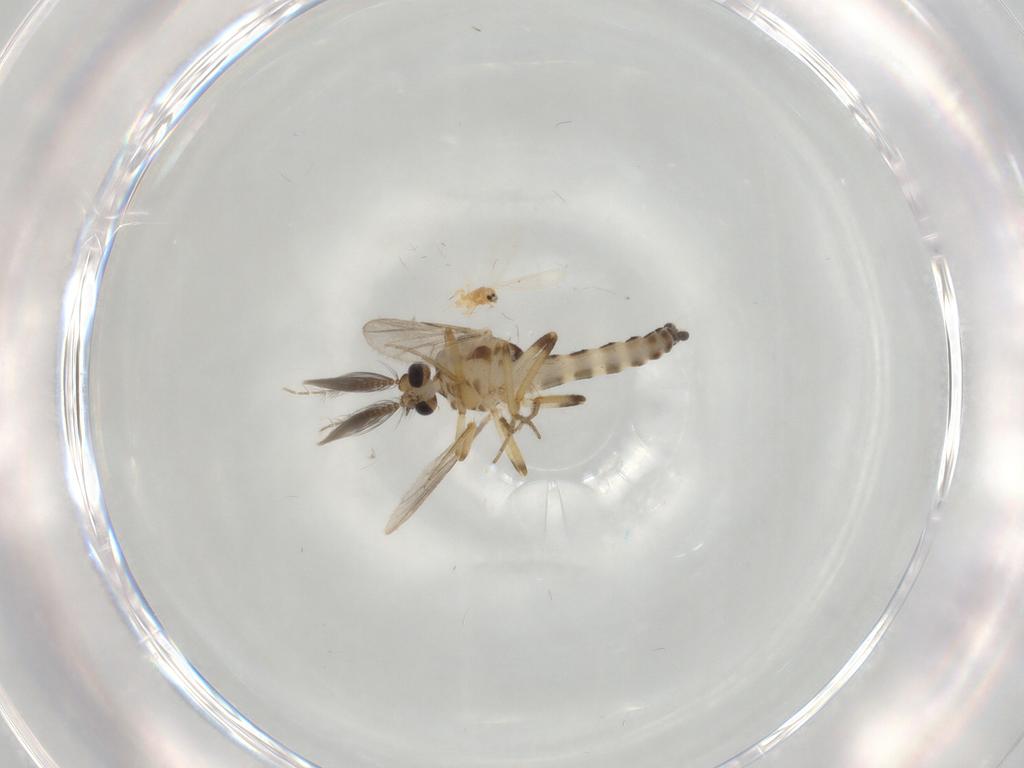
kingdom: Animalia
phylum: Arthropoda
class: Insecta
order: Diptera
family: Ceratopogonidae
